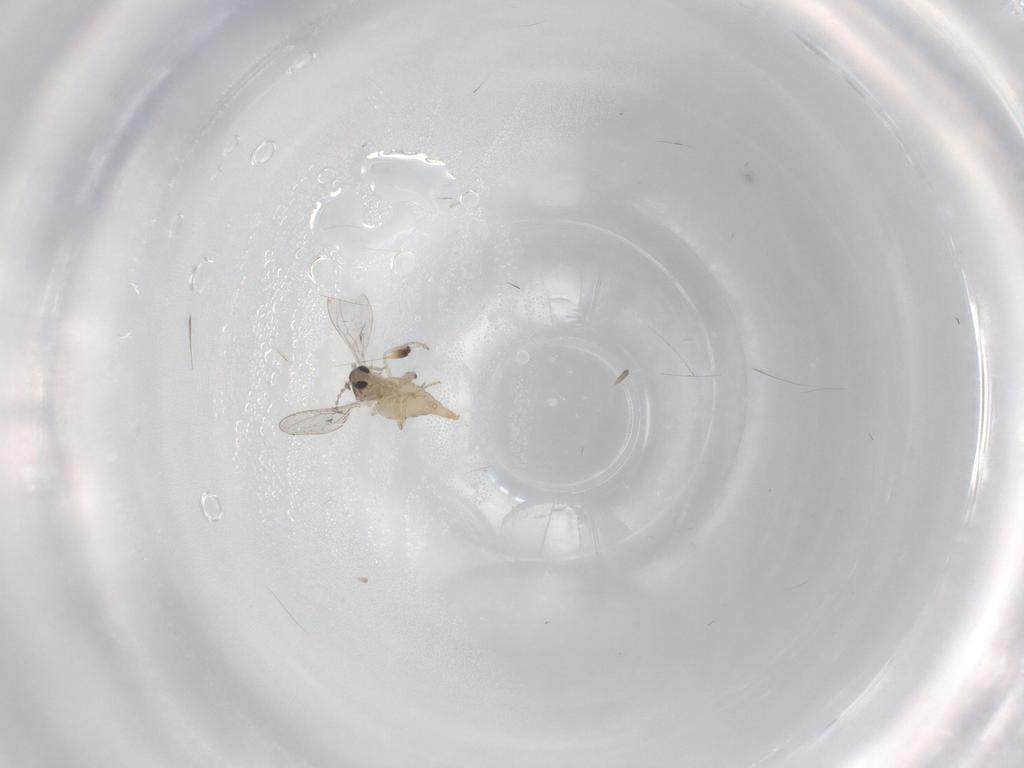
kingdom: Animalia
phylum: Arthropoda
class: Insecta
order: Diptera
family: Cecidomyiidae
